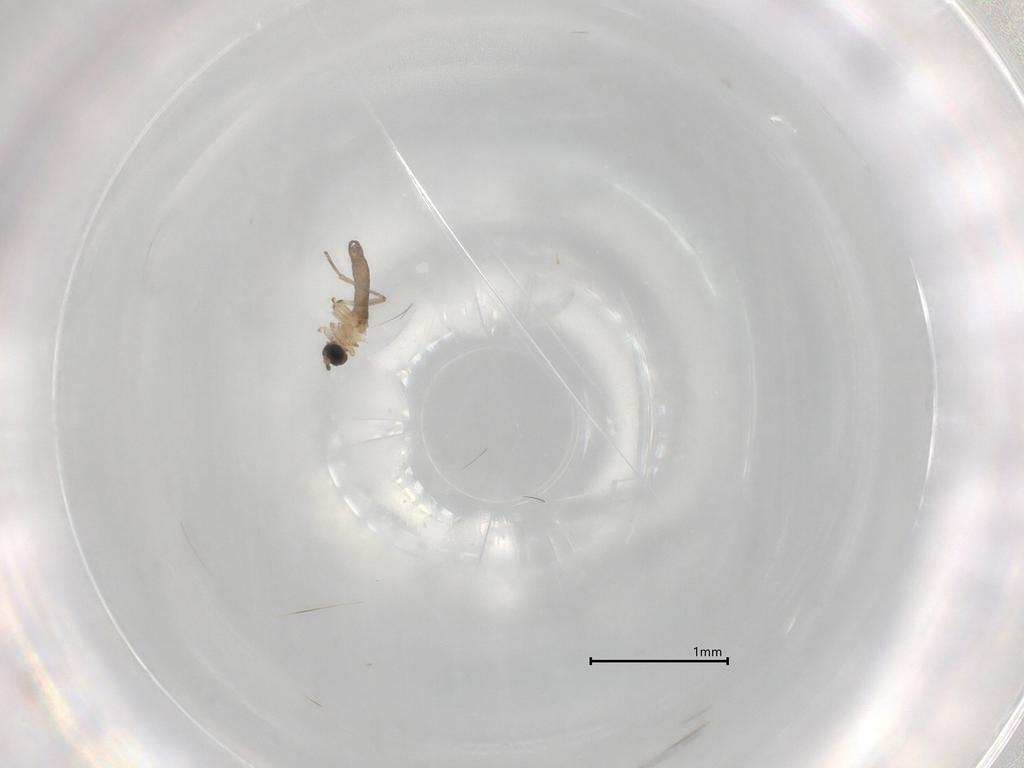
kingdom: Animalia
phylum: Arthropoda
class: Insecta
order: Diptera
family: Sciaridae
